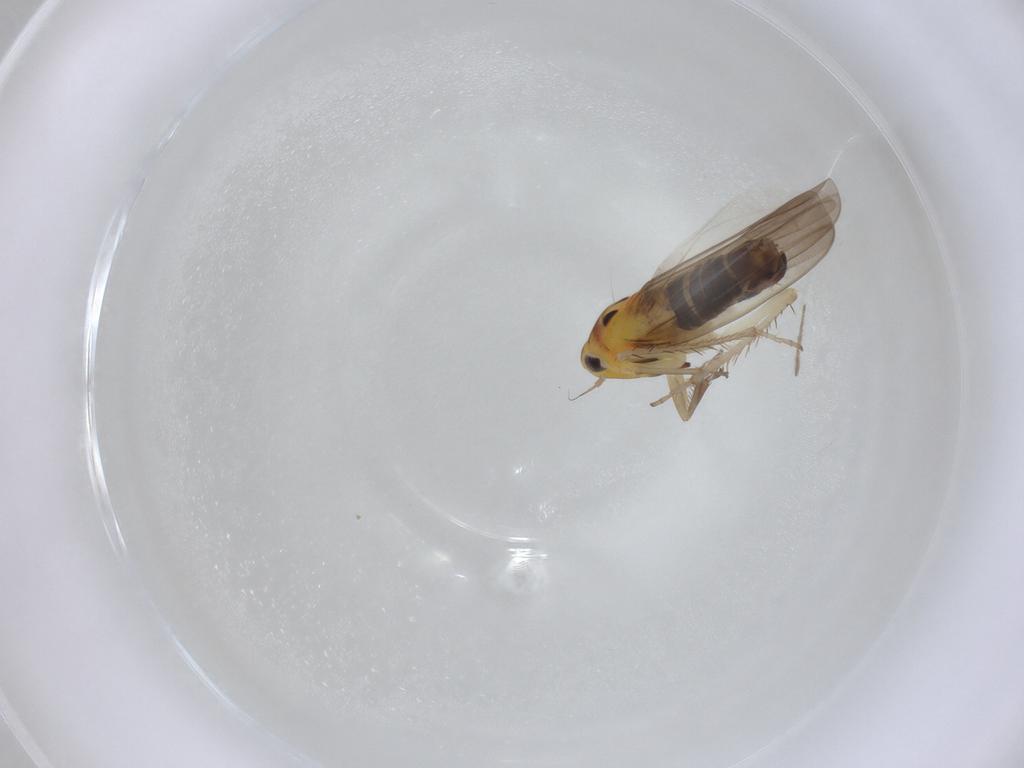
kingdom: Animalia
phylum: Arthropoda
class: Insecta
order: Hemiptera
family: Cicadellidae
